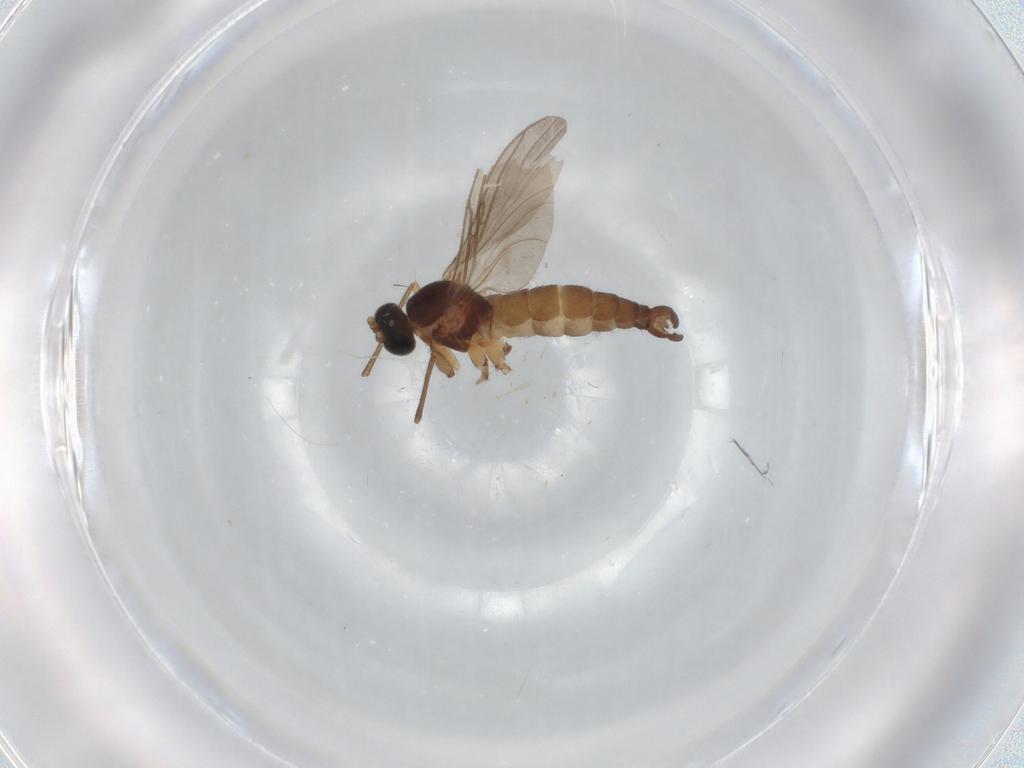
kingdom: Animalia
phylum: Arthropoda
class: Insecta
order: Diptera
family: Sciaridae
